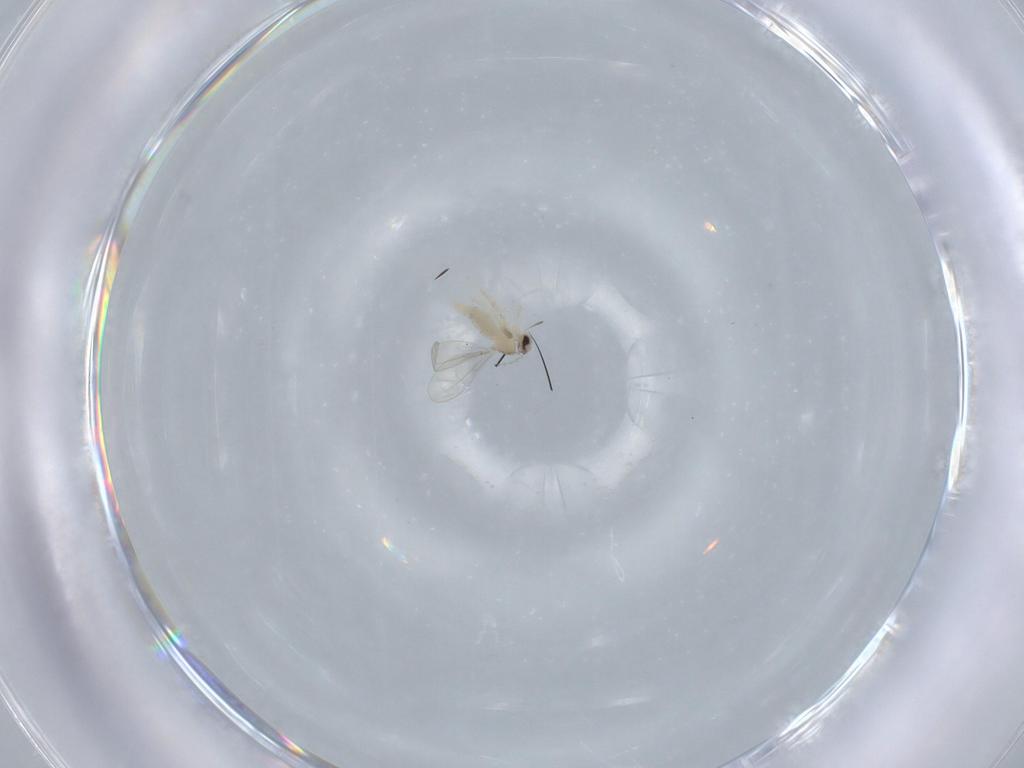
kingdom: Animalia
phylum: Arthropoda
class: Insecta
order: Diptera
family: Cecidomyiidae
